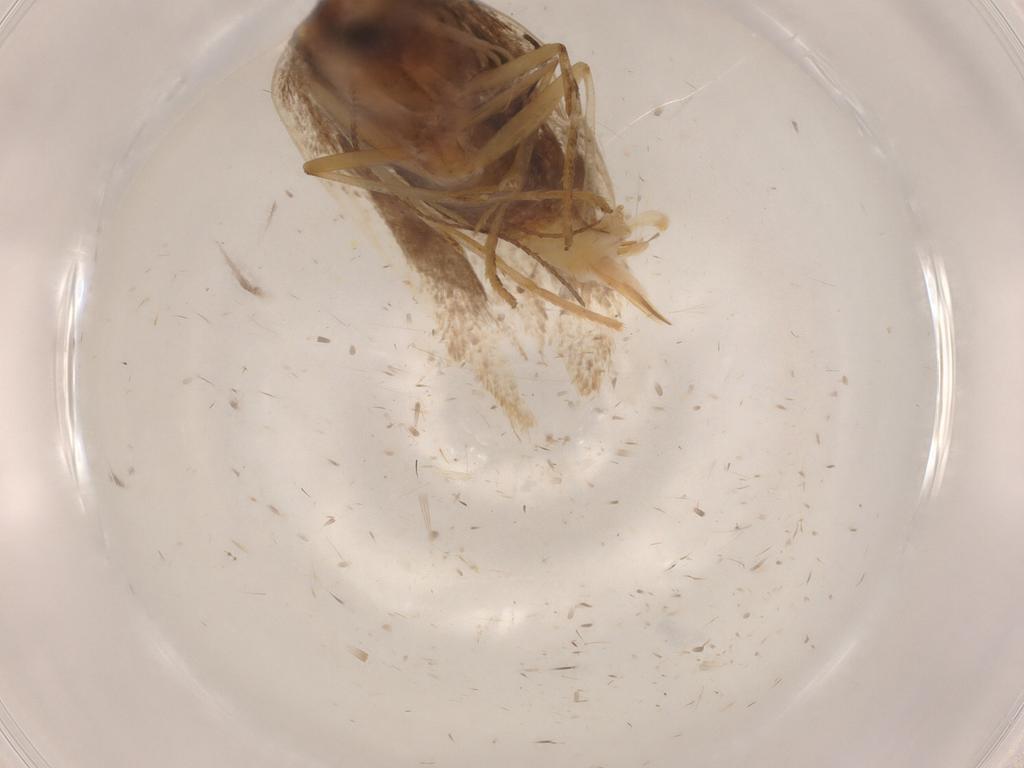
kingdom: Animalia
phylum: Arthropoda
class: Insecta
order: Lepidoptera
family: Gelechiidae
